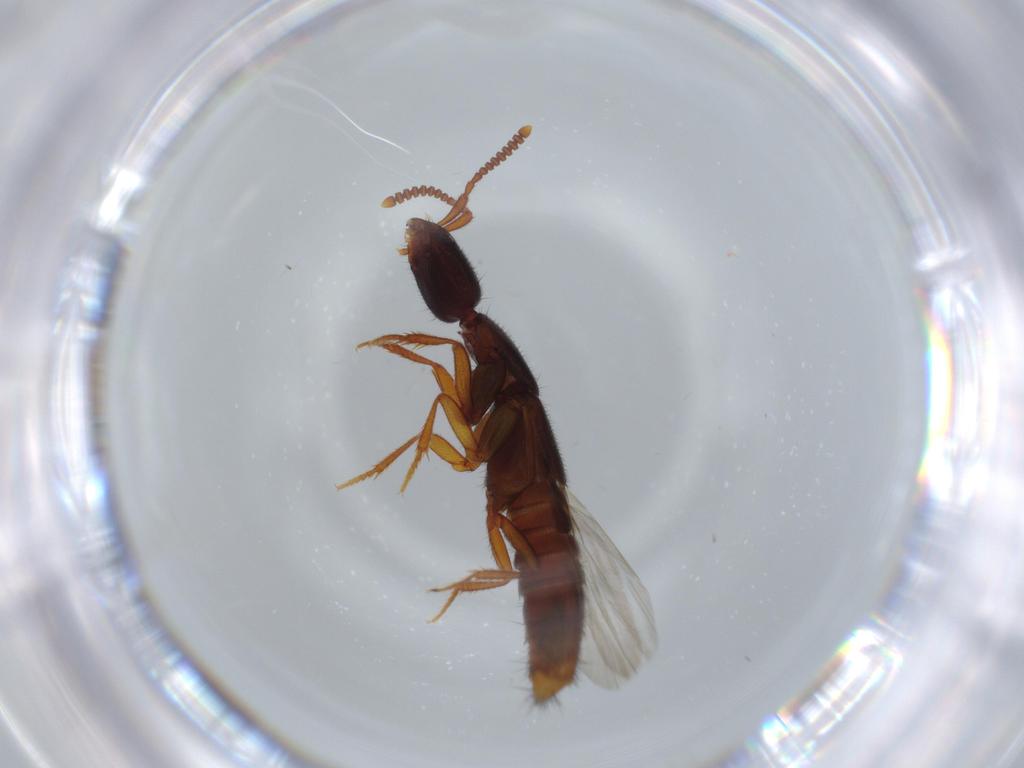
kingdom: Animalia
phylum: Arthropoda
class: Insecta
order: Coleoptera
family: Staphylinidae
